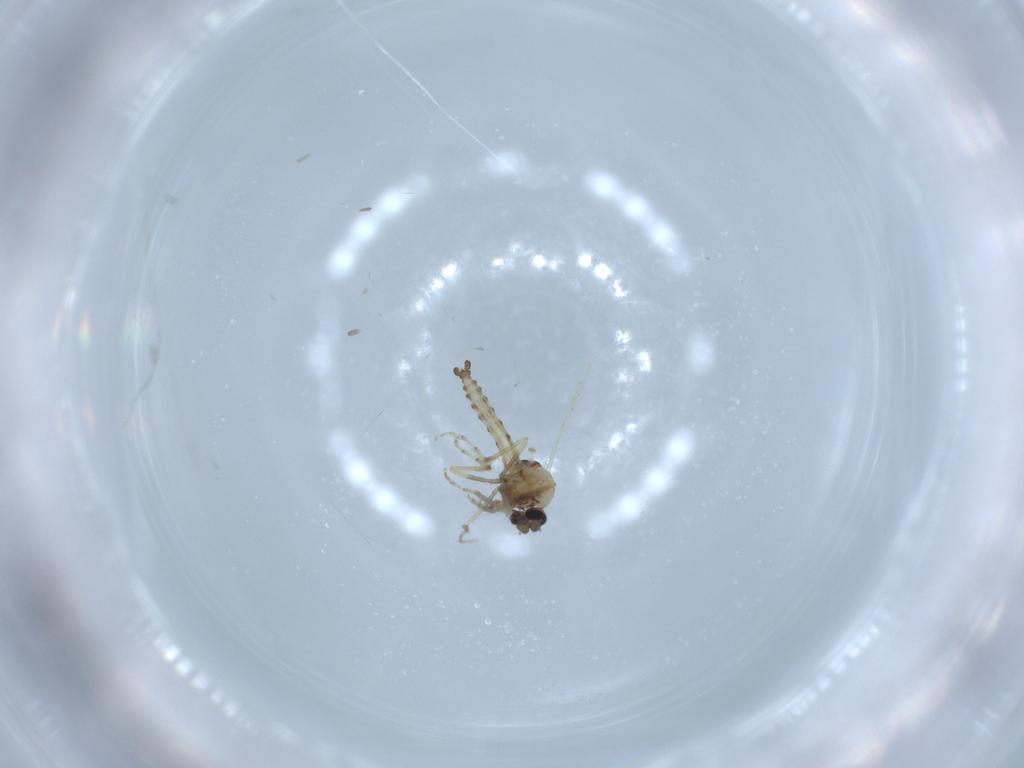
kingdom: Animalia
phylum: Arthropoda
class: Insecta
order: Diptera
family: Ceratopogonidae
